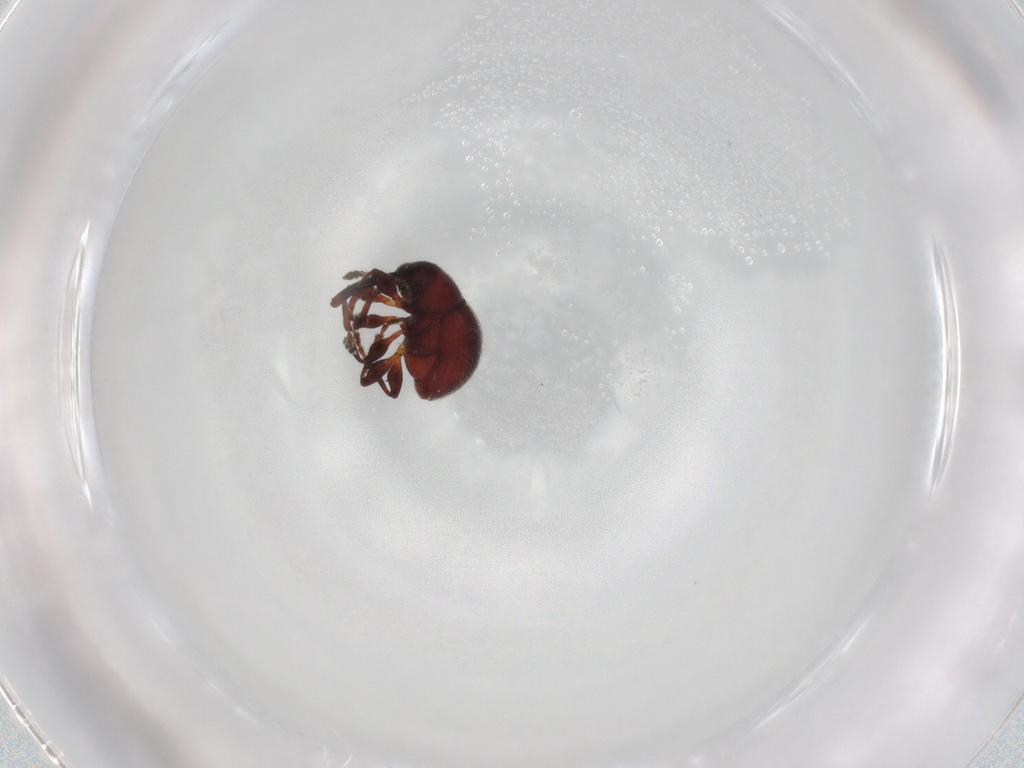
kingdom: Animalia
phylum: Arthropoda
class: Insecta
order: Coleoptera
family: Brentidae
